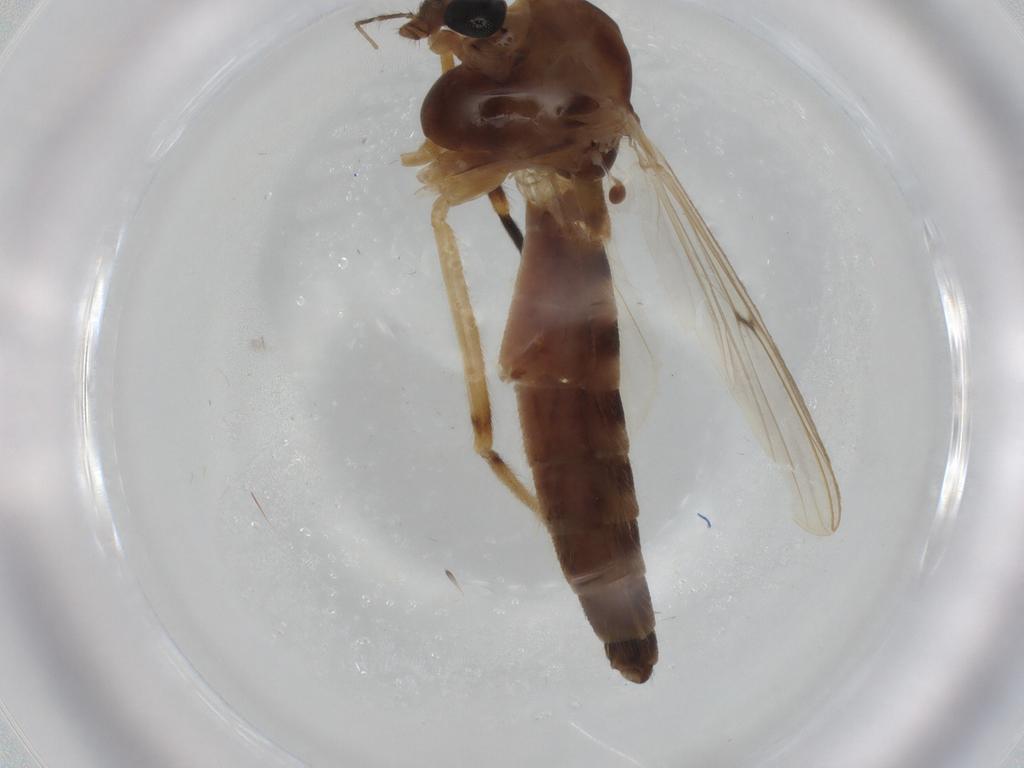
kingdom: Animalia
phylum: Arthropoda
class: Insecta
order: Diptera
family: Chironomidae
